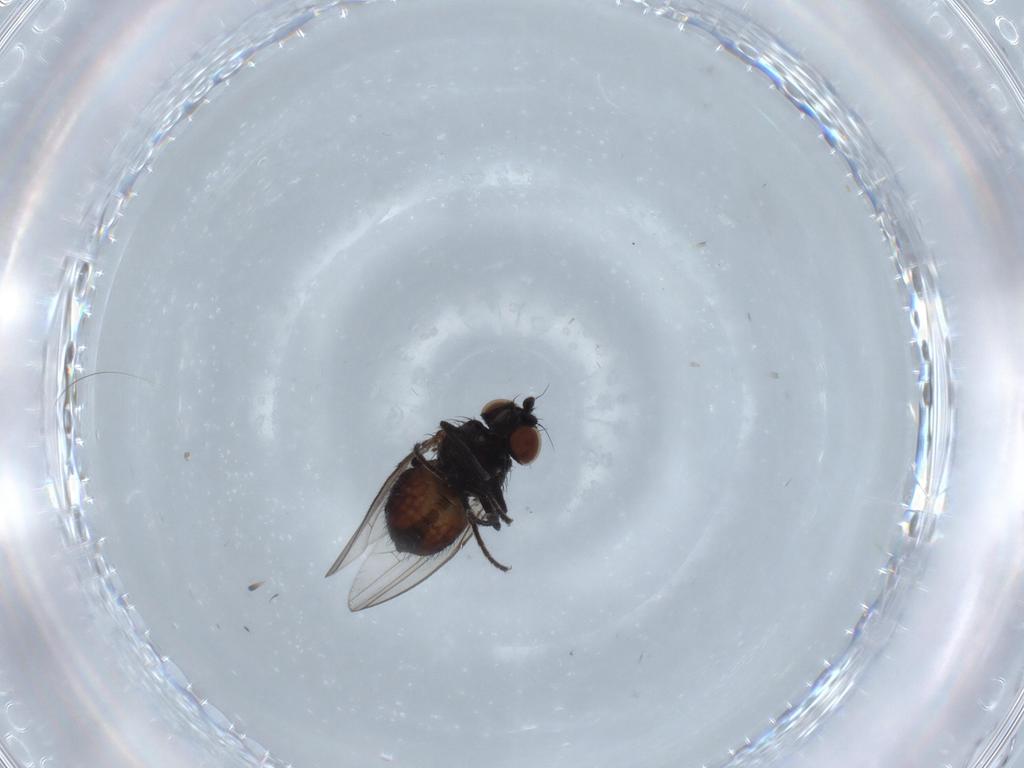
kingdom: Animalia
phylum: Arthropoda
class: Insecta
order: Diptera
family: Milichiidae
